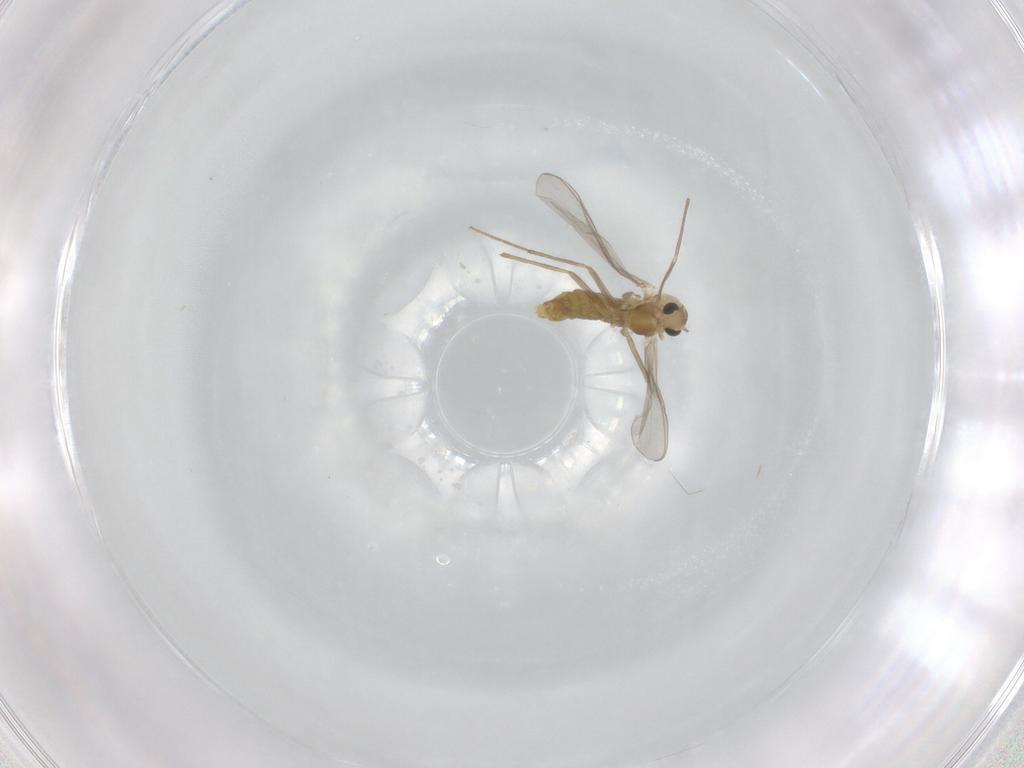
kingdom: Animalia
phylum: Arthropoda
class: Insecta
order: Diptera
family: Chironomidae
